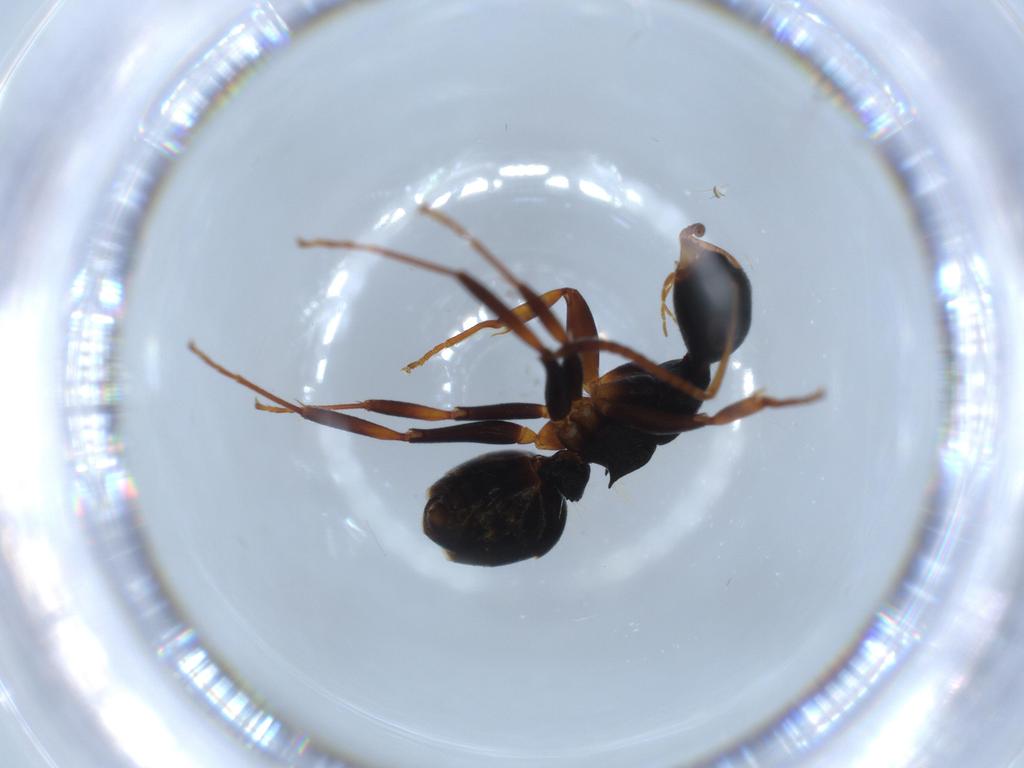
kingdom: Animalia
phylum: Arthropoda
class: Insecta
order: Hymenoptera
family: Formicidae
